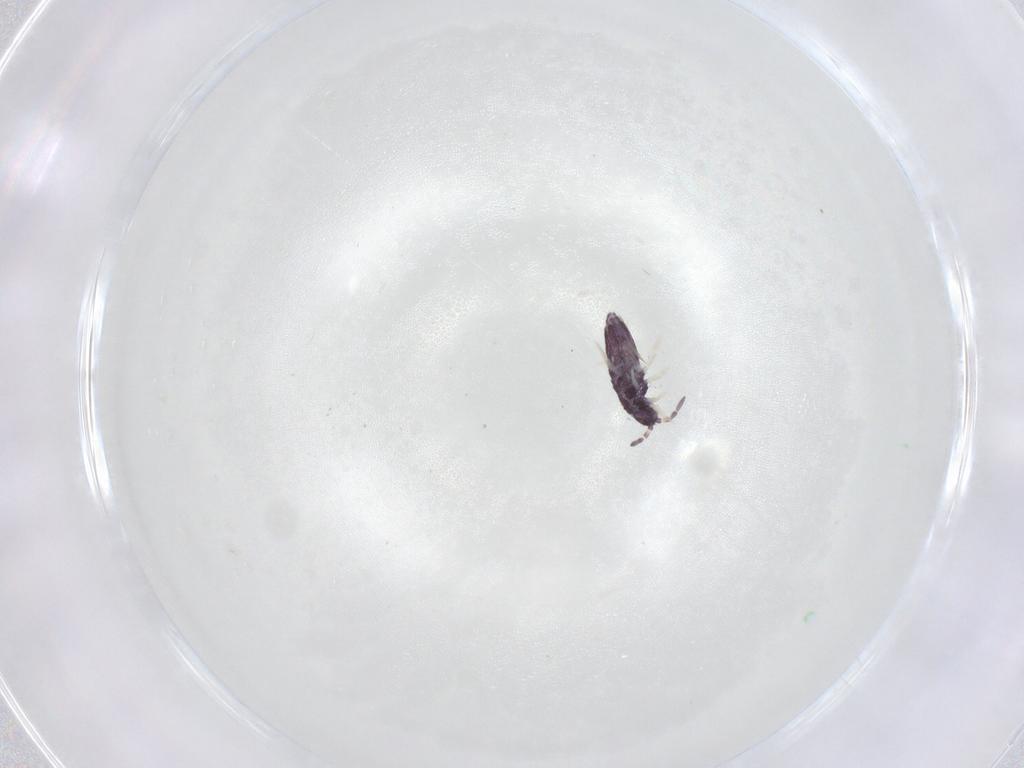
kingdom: Animalia
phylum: Arthropoda
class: Collembola
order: Entomobryomorpha
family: Entomobryidae
